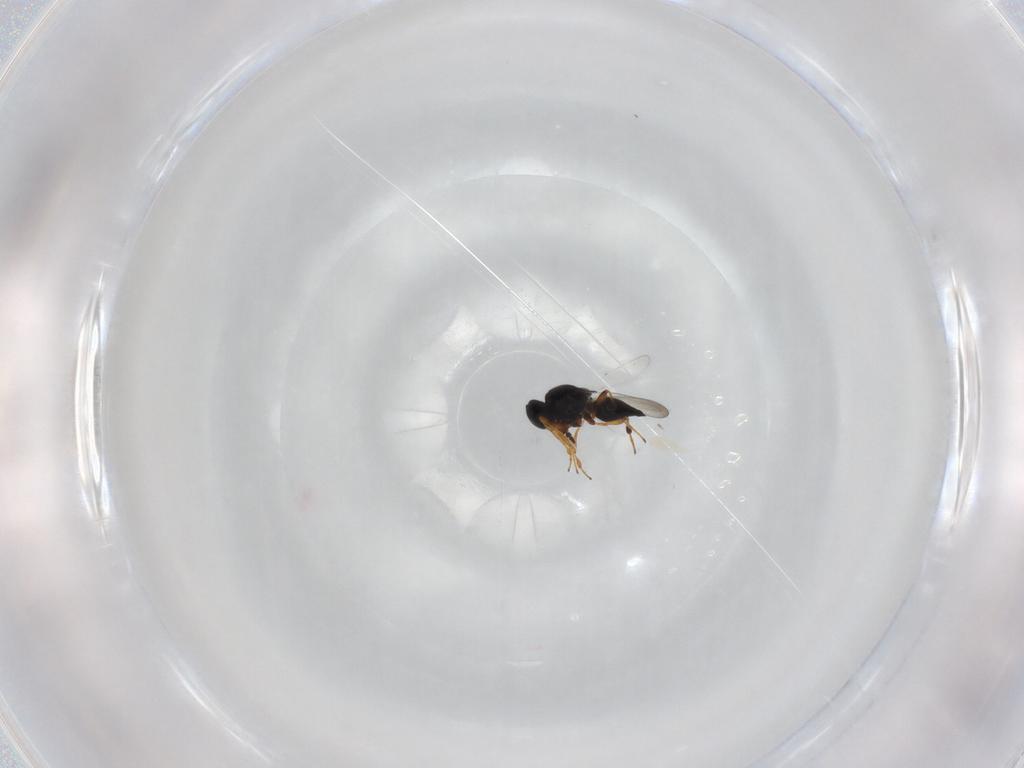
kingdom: Animalia
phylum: Arthropoda
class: Insecta
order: Hymenoptera
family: Platygastridae
